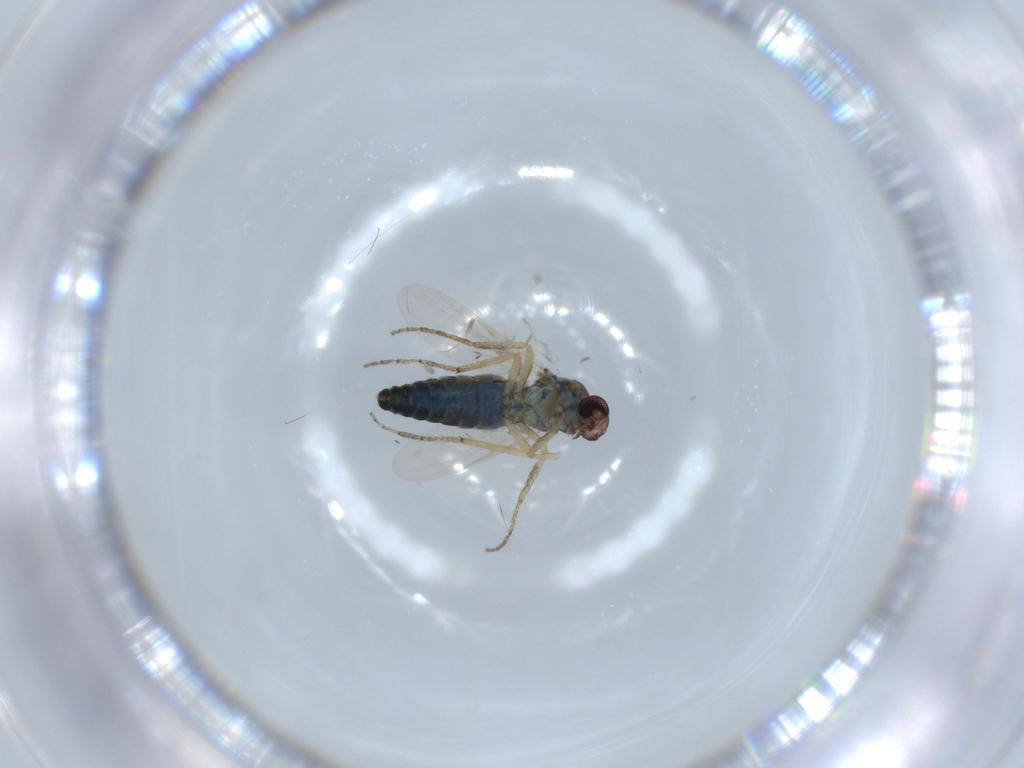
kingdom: Animalia
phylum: Arthropoda
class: Insecta
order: Diptera
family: Ceratopogonidae
